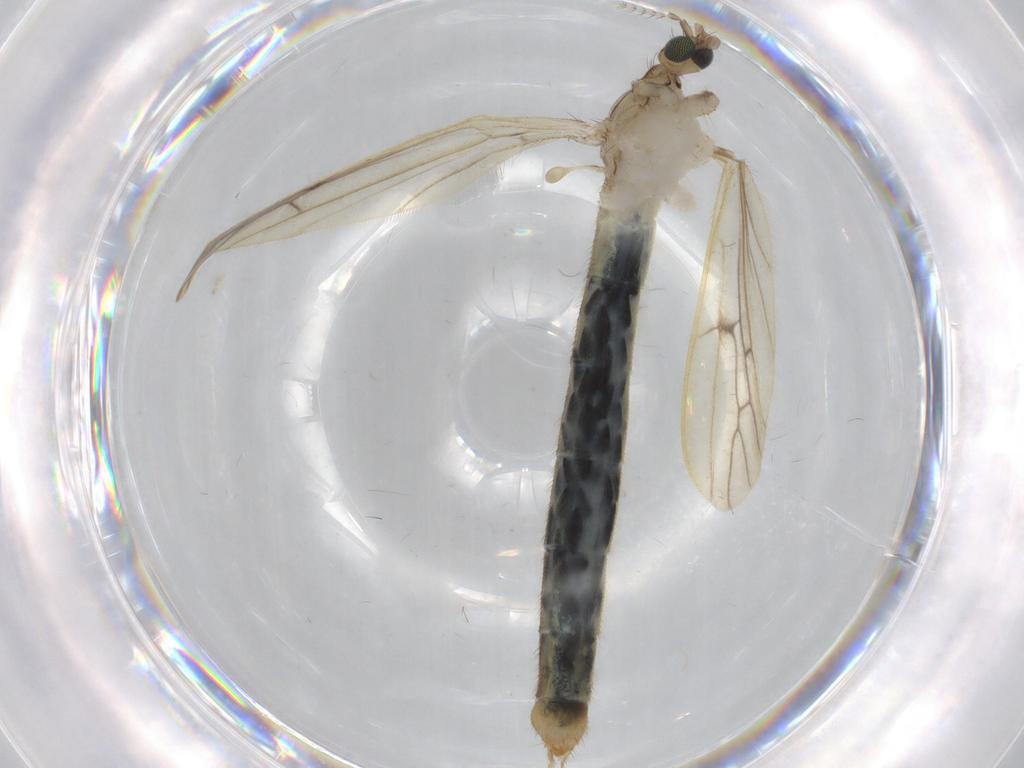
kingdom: Animalia
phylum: Arthropoda
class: Insecta
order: Diptera
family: Limoniidae
